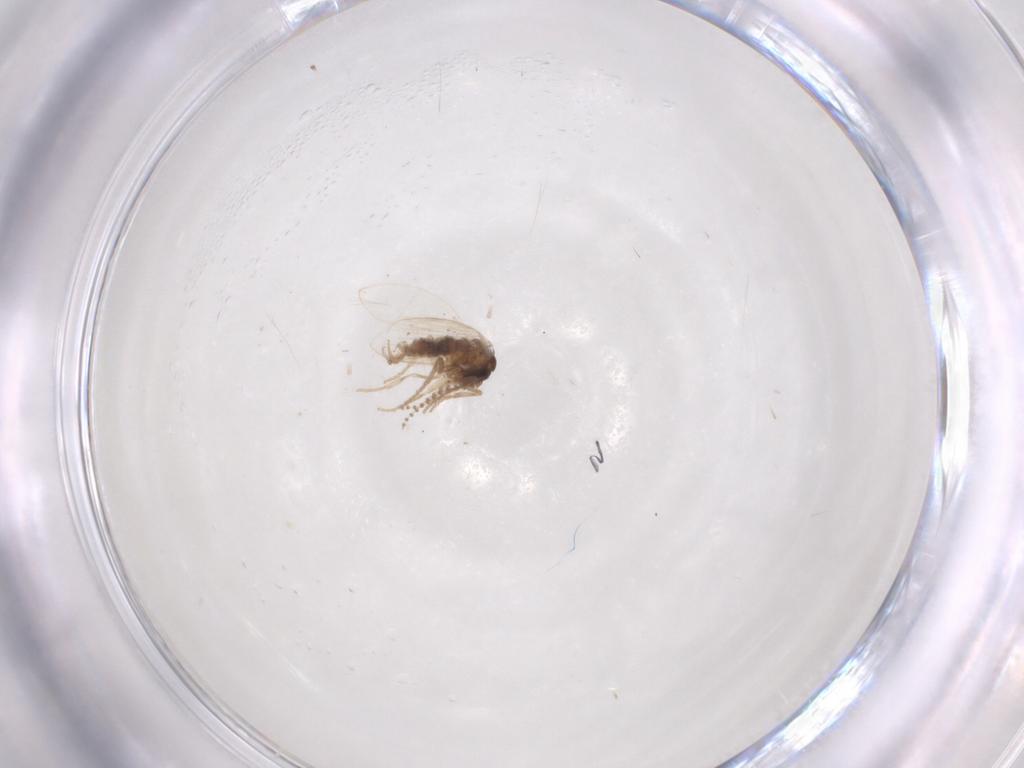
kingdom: Animalia
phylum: Arthropoda
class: Insecta
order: Diptera
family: Psychodidae
